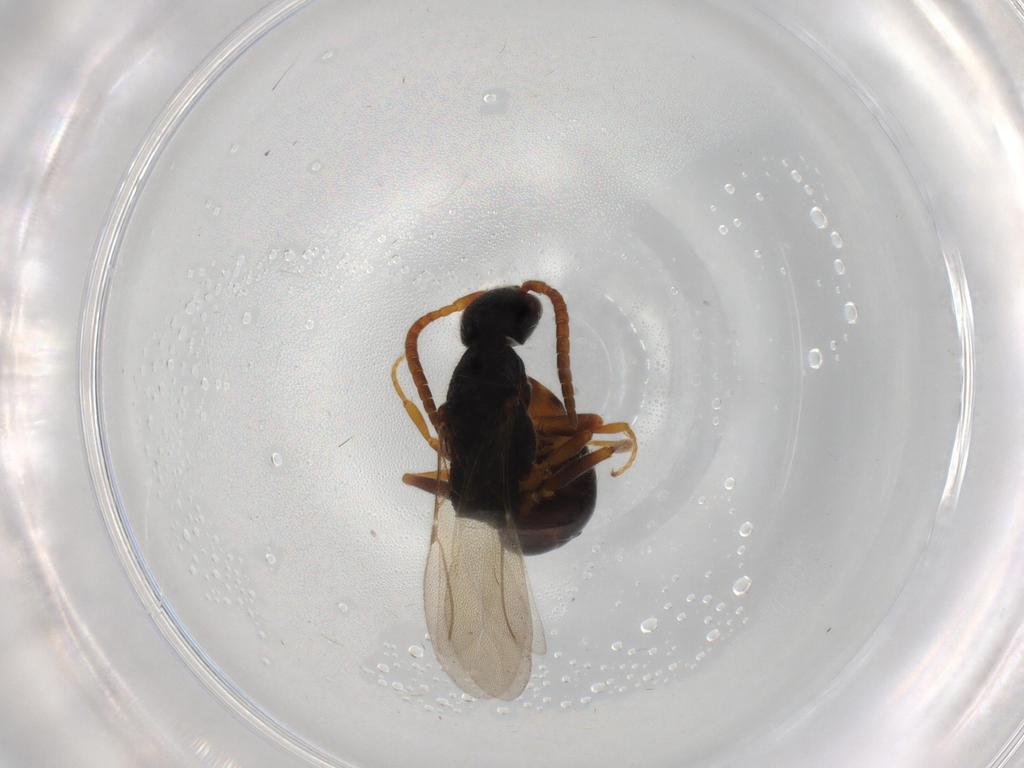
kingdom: Animalia
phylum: Arthropoda
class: Insecta
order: Hymenoptera
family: Bethylidae
